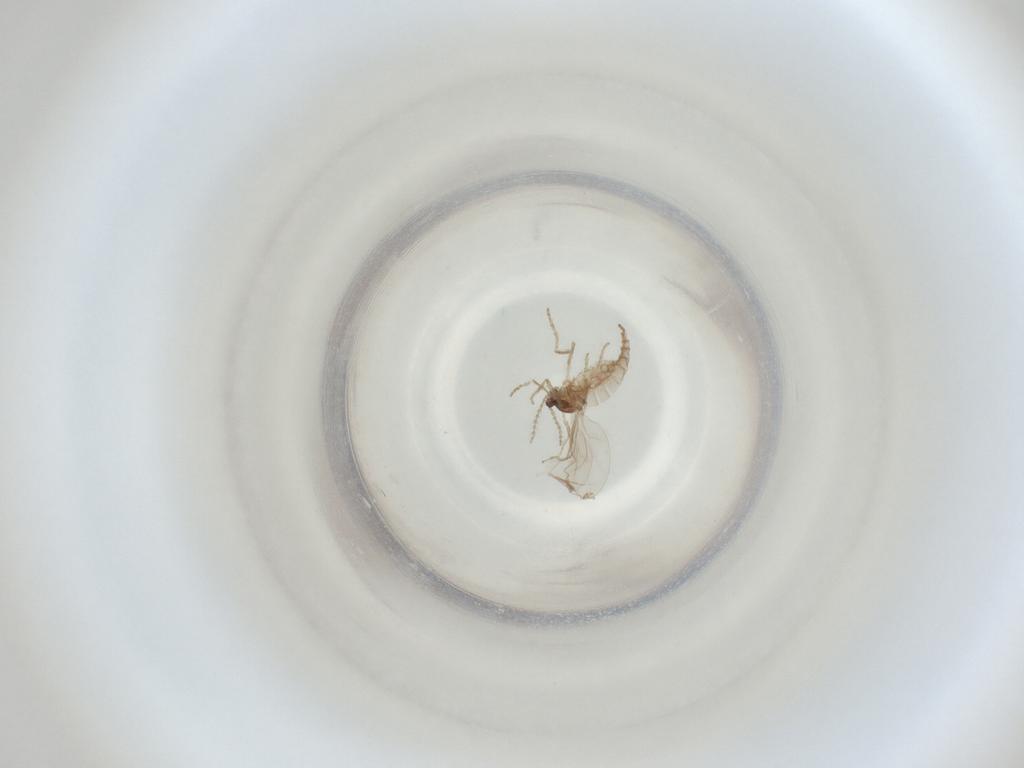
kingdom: Animalia
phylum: Arthropoda
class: Insecta
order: Diptera
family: Cecidomyiidae
